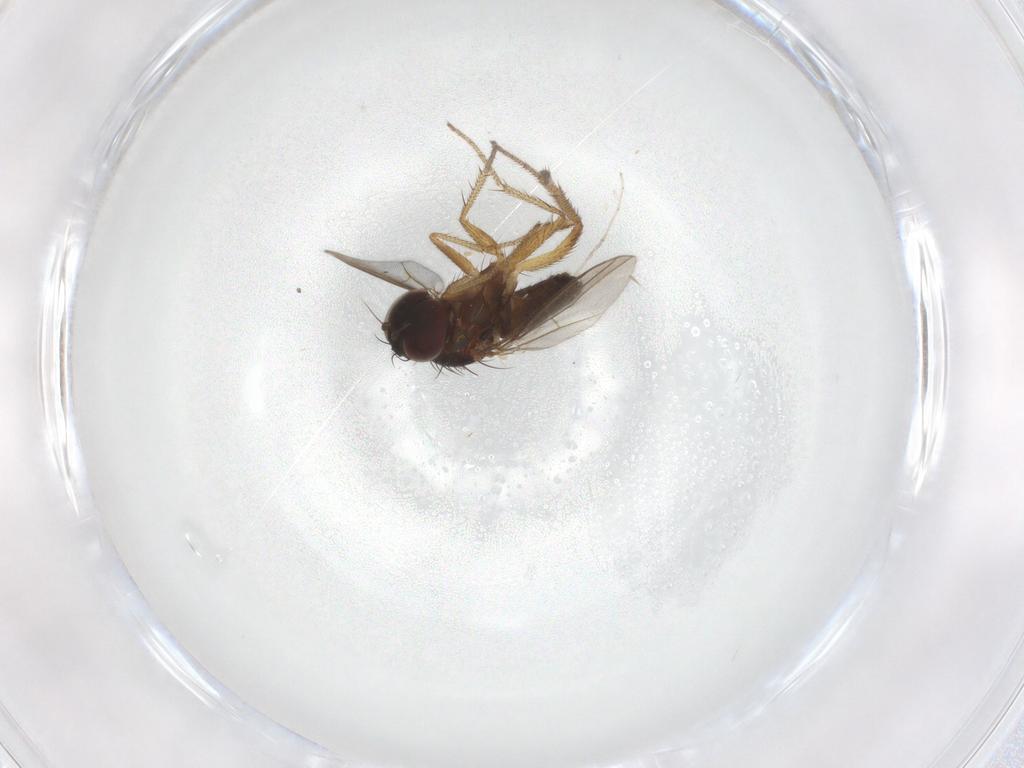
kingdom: Animalia
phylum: Arthropoda
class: Insecta
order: Diptera
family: Cecidomyiidae
